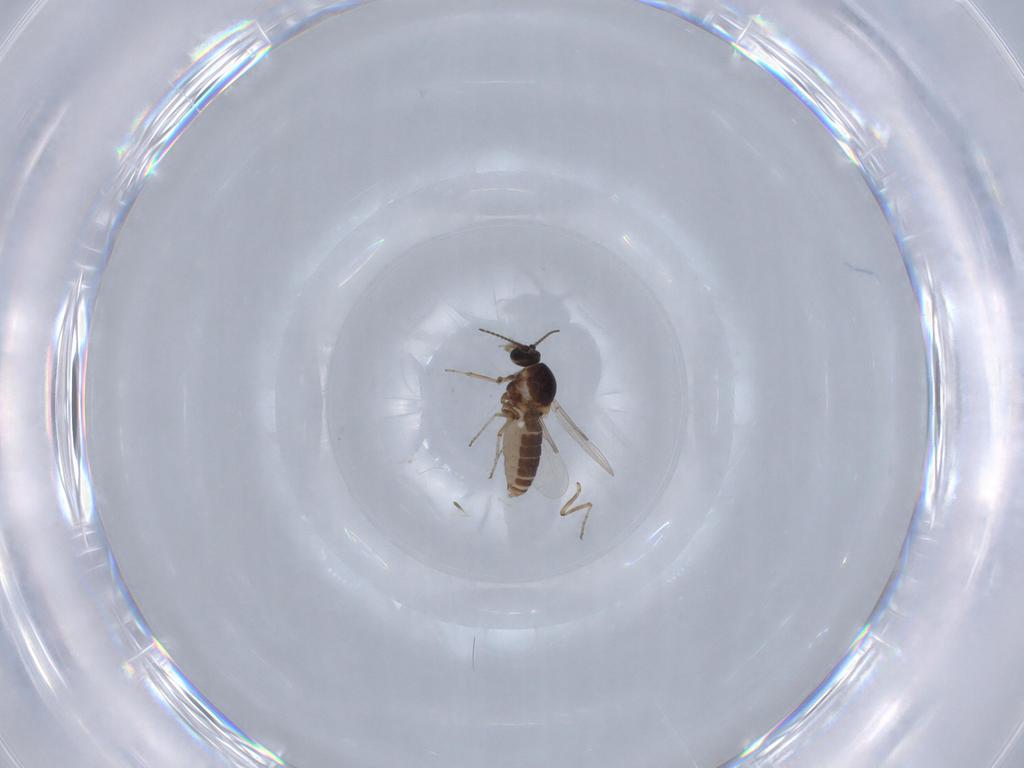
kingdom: Animalia
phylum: Arthropoda
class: Insecta
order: Diptera
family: Ceratopogonidae
